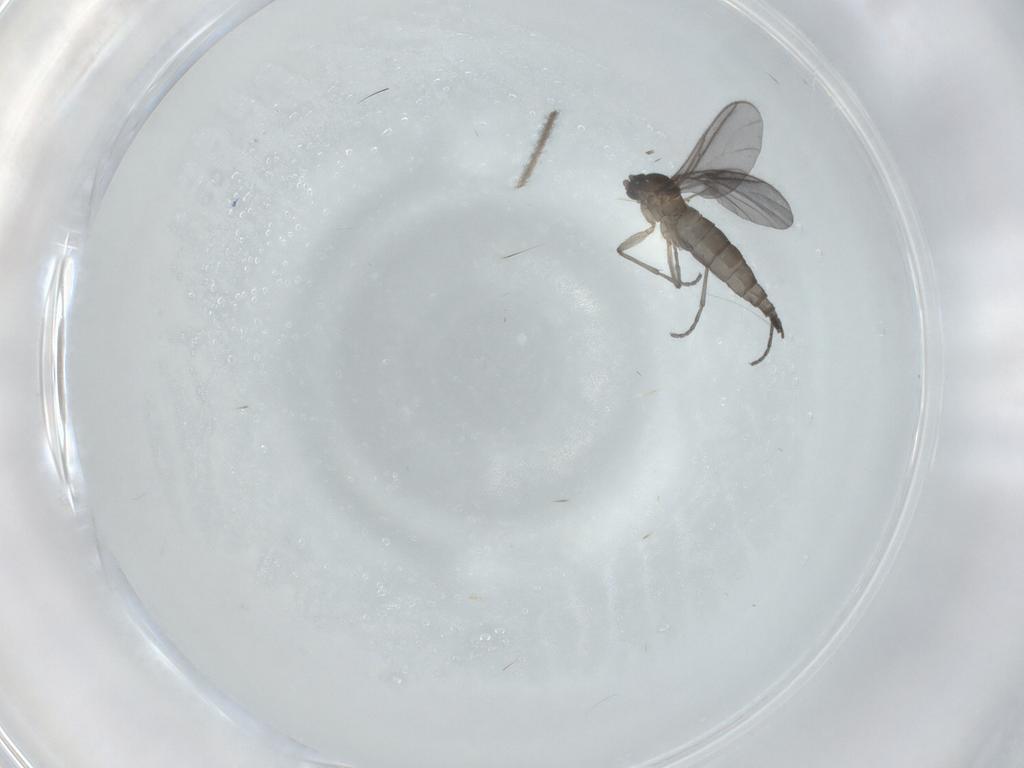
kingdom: Animalia
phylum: Arthropoda
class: Insecta
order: Diptera
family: Sciaridae
